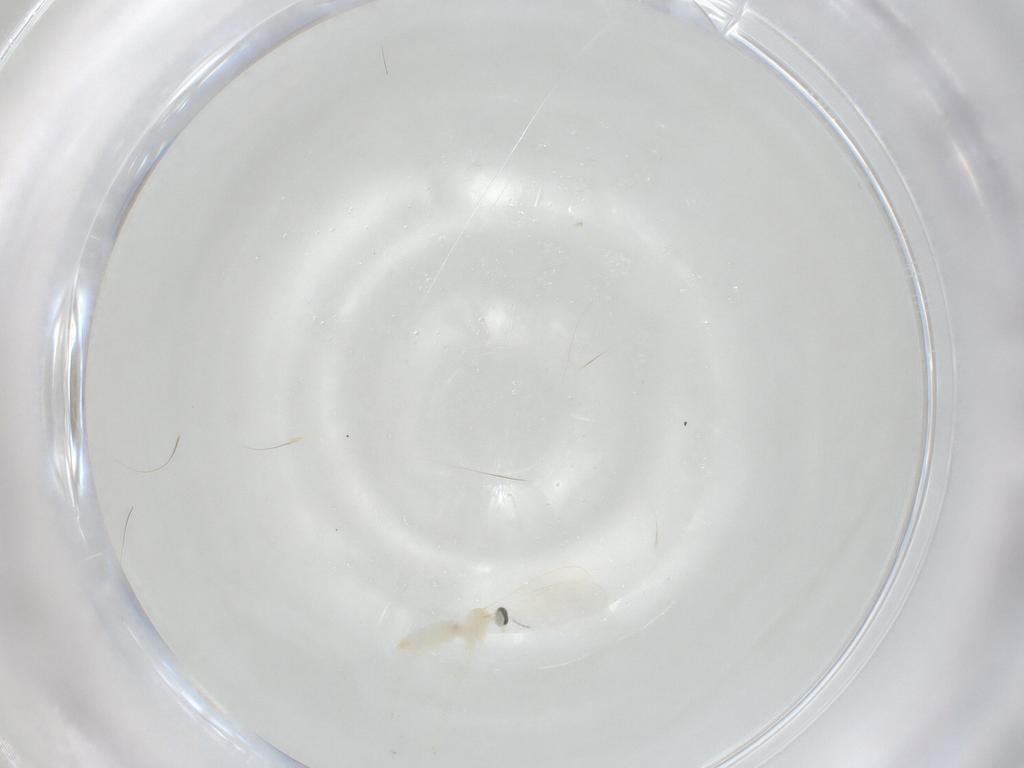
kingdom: Animalia
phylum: Arthropoda
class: Insecta
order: Diptera
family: Cecidomyiidae
